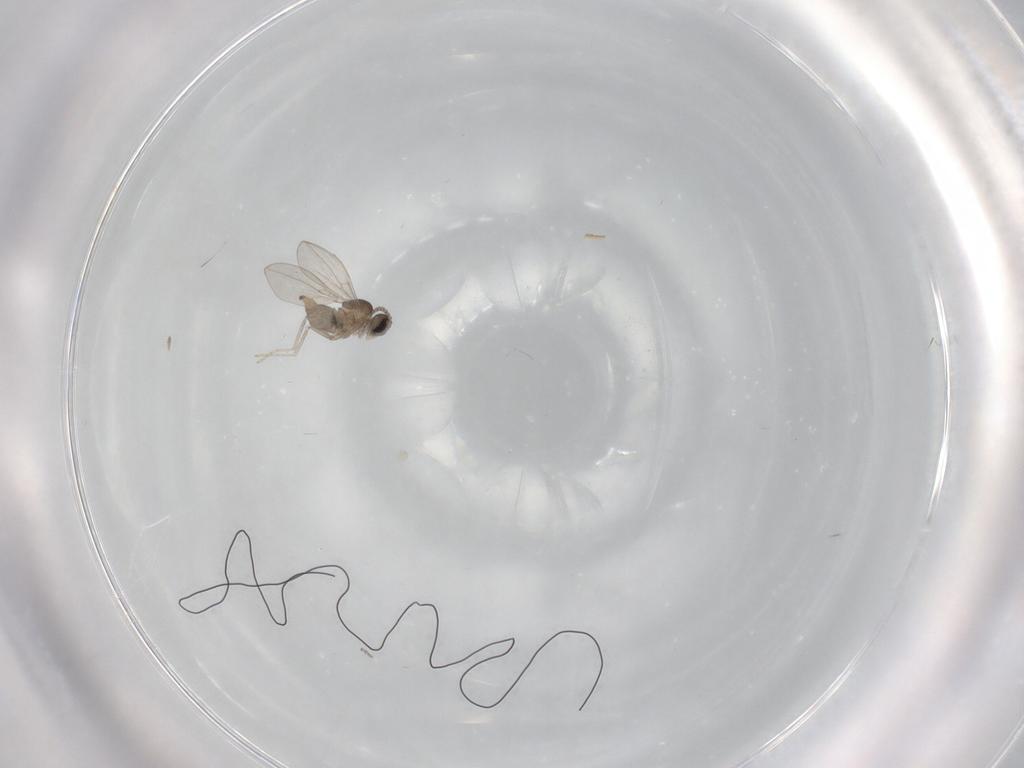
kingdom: Animalia
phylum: Arthropoda
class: Insecta
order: Diptera
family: Cecidomyiidae
